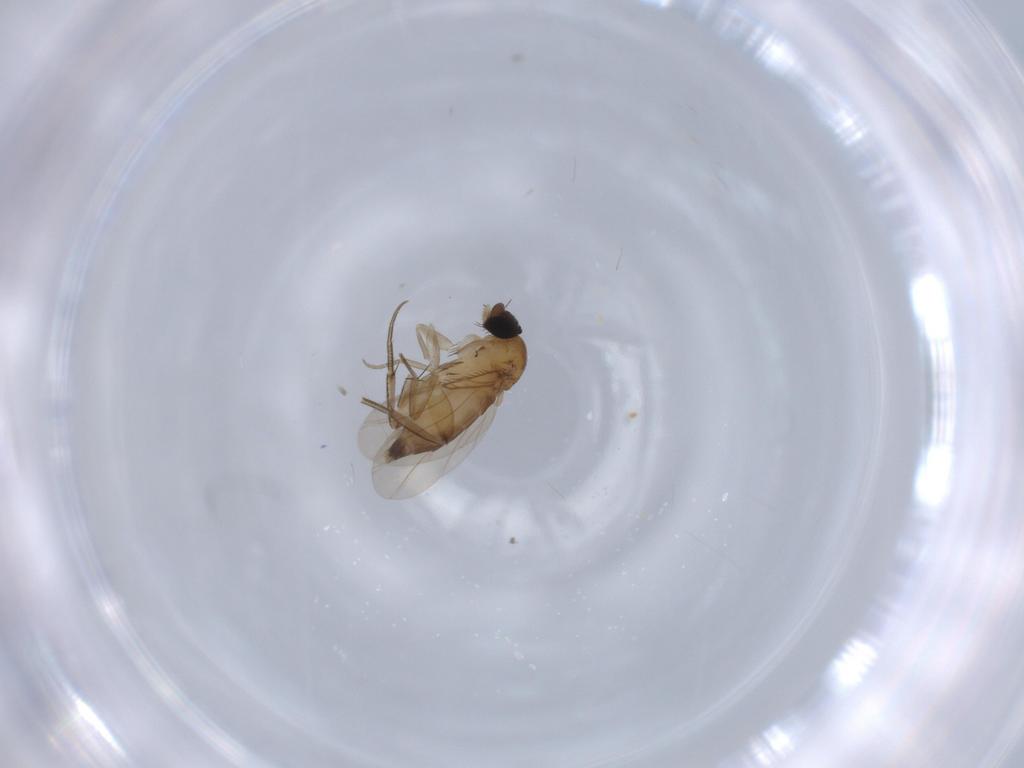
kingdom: Animalia
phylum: Arthropoda
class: Insecta
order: Diptera
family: Phoridae
